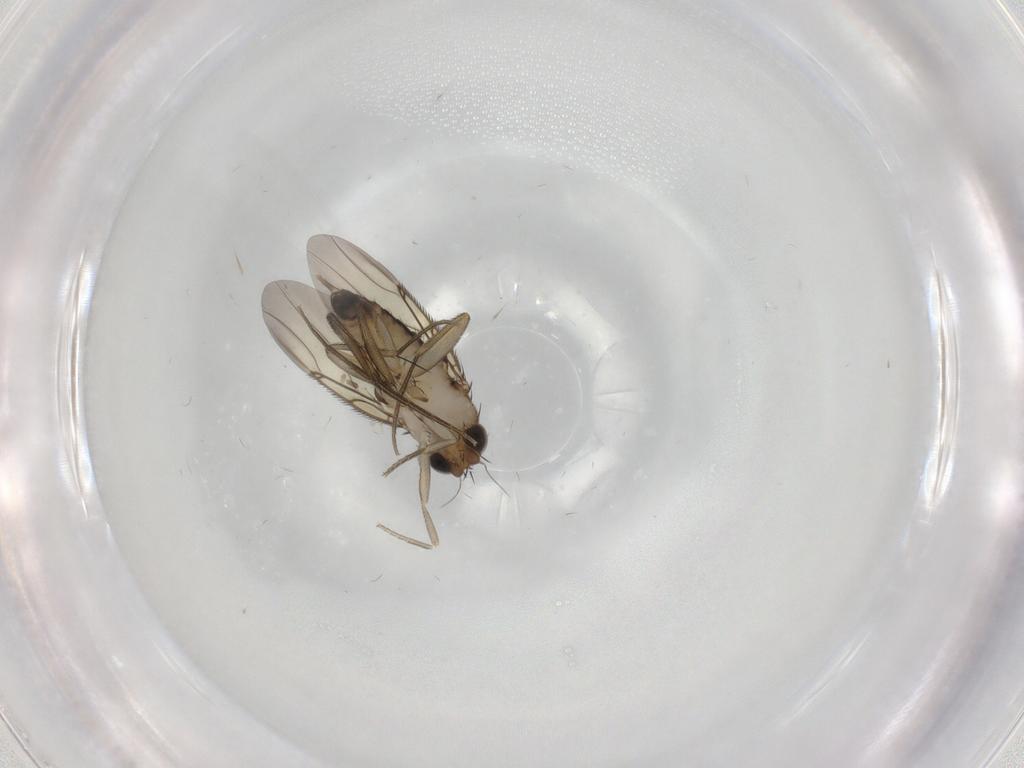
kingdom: Animalia
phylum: Arthropoda
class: Insecta
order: Diptera
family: Phoridae
